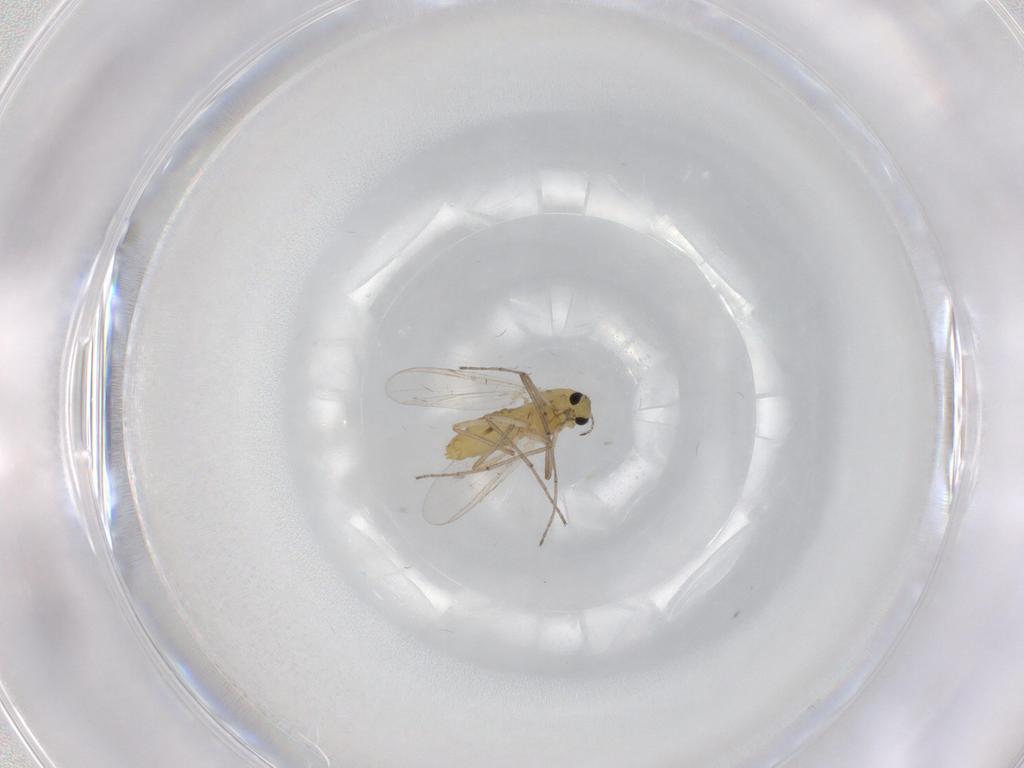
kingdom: Animalia
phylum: Arthropoda
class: Insecta
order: Diptera
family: Chironomidae
